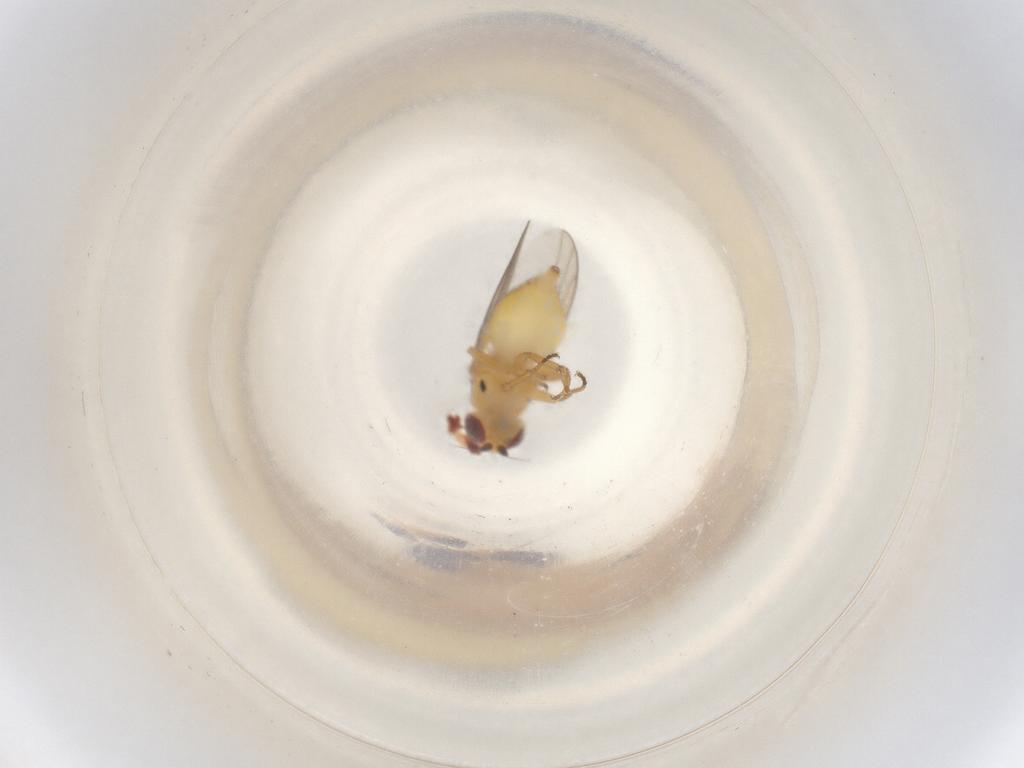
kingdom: Animalia
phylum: Arthropoda
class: Insecta
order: Diptera
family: Chloropidae
